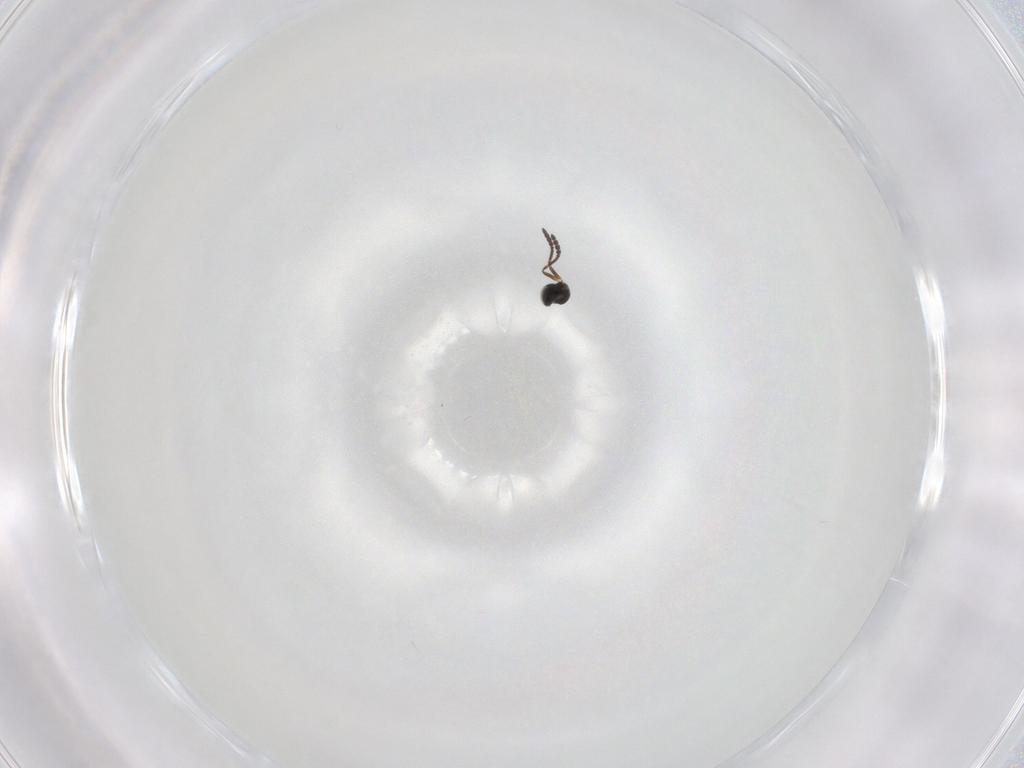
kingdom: Animalia
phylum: Arthropoda
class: Insecta
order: Hymenoptera
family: Scelionidae
